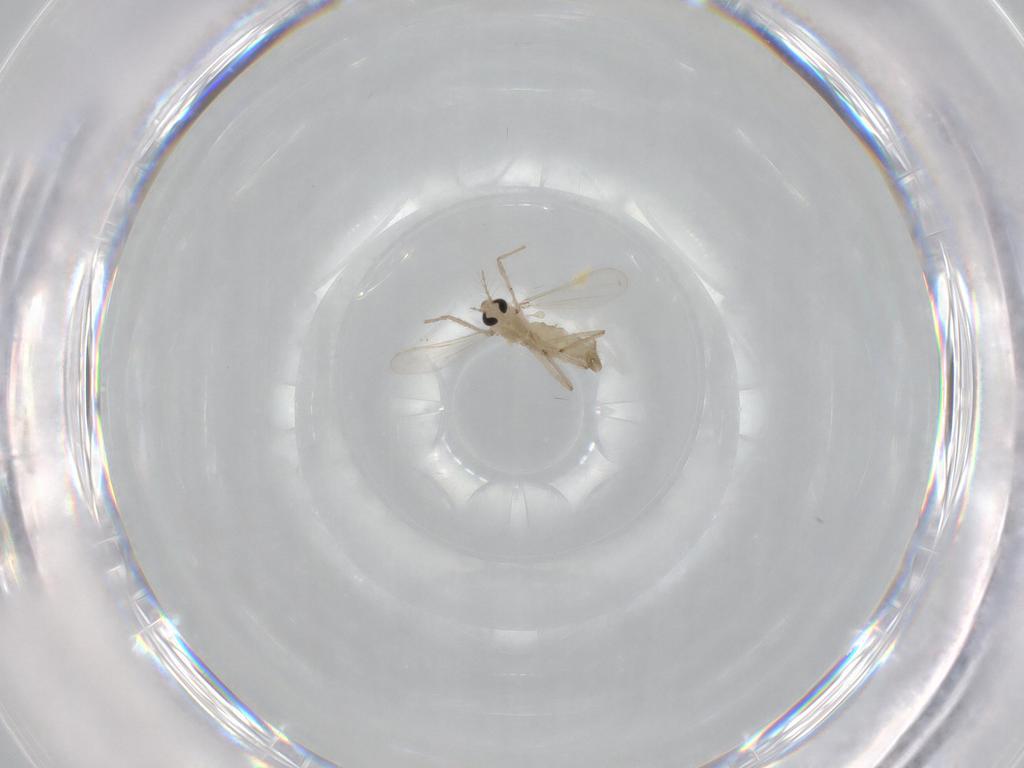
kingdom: Animalia
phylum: Arthropoda
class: Insecta
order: Diptera
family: Chironomidae
